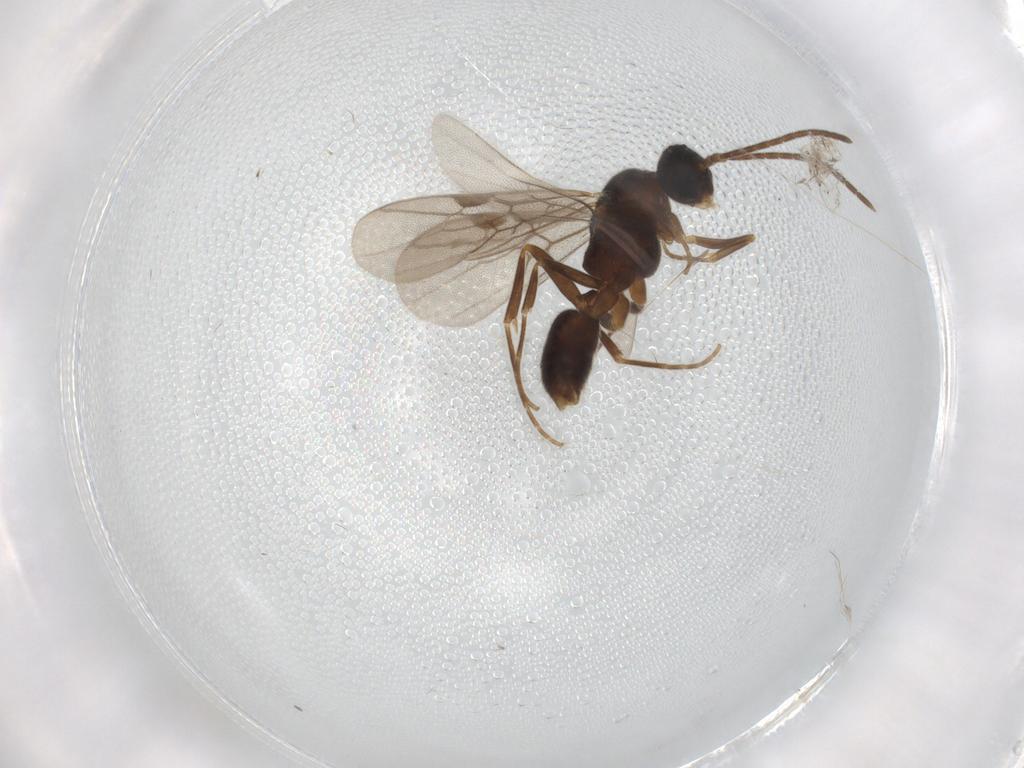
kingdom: Animalia
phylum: Arthropoda
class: Insecta
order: Hymenoptera
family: Formicidae
